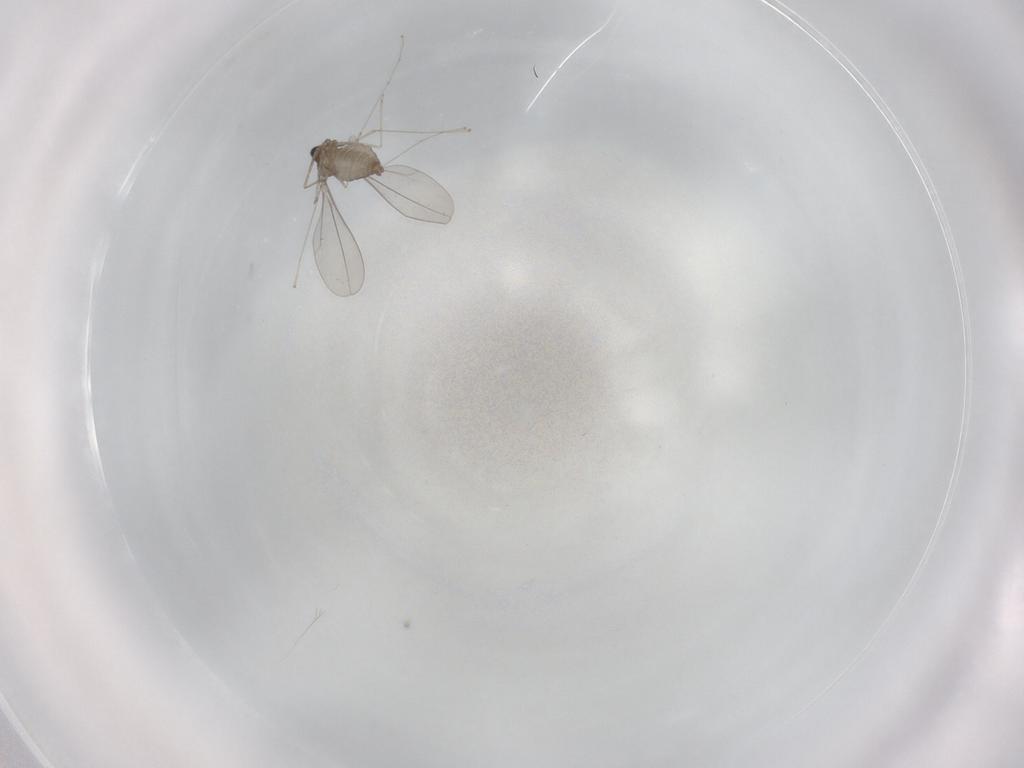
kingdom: Animalia
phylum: Arthropoda
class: Insecta
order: Diptera
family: Cecidomyiidae
